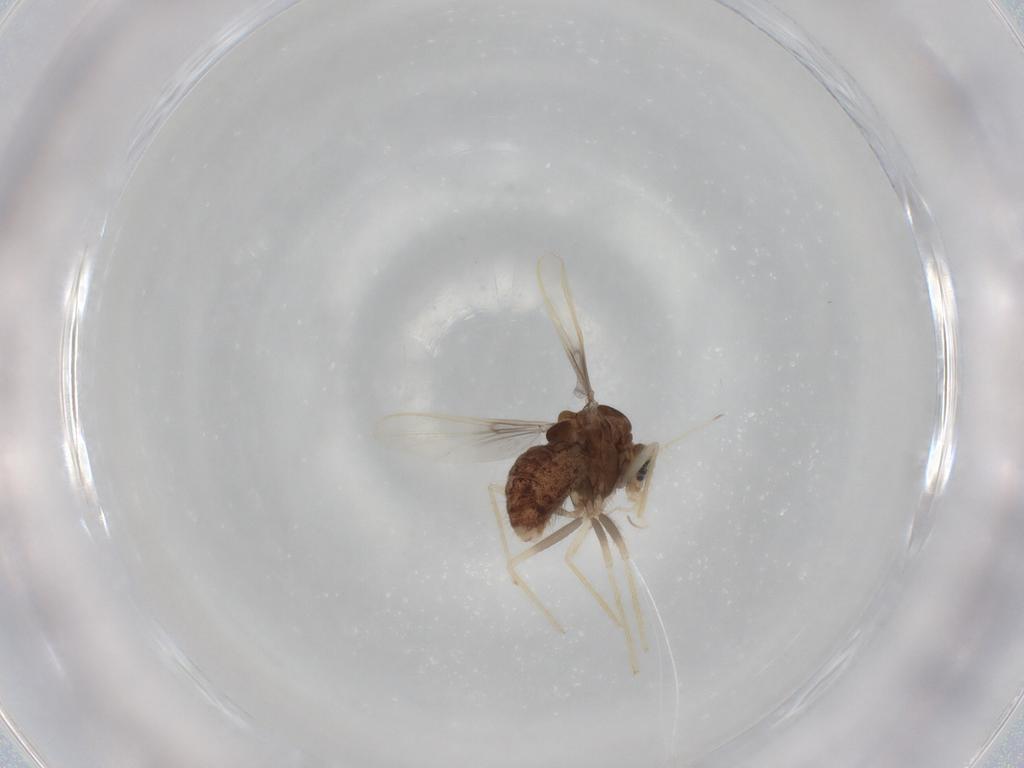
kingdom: Animalia
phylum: Arthropoda
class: Insecta
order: Diptera
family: Chironomidae
